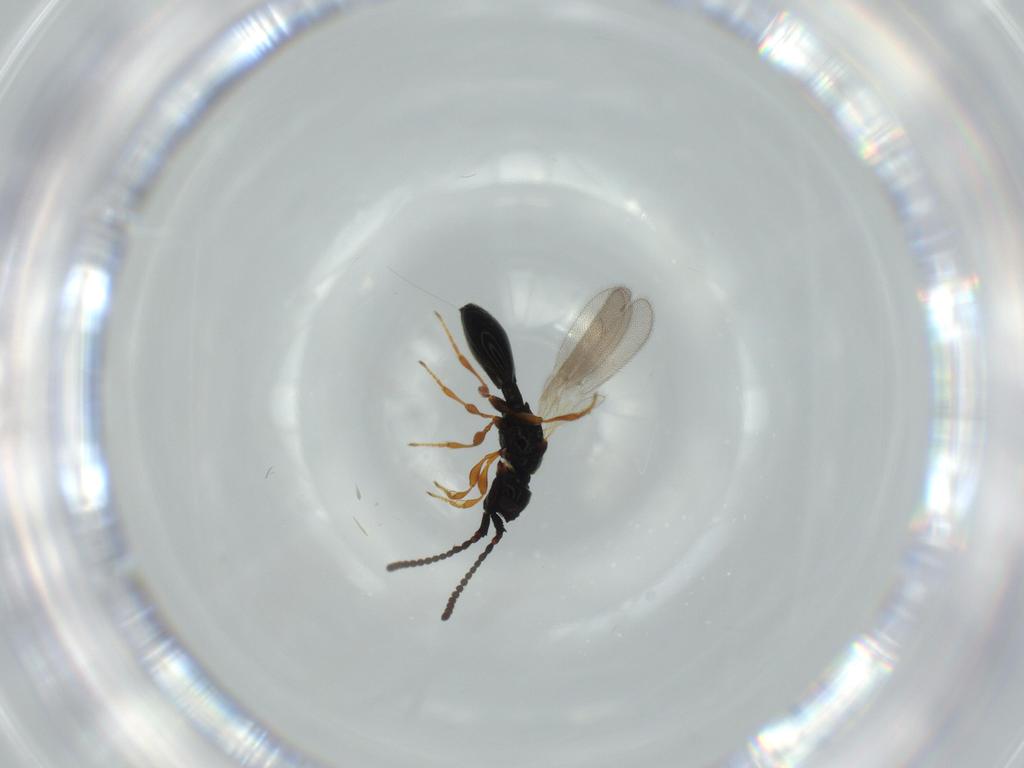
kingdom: Animalia
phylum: Arthropoda
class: Insecta
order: Hymenoptera
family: Diapriidae
